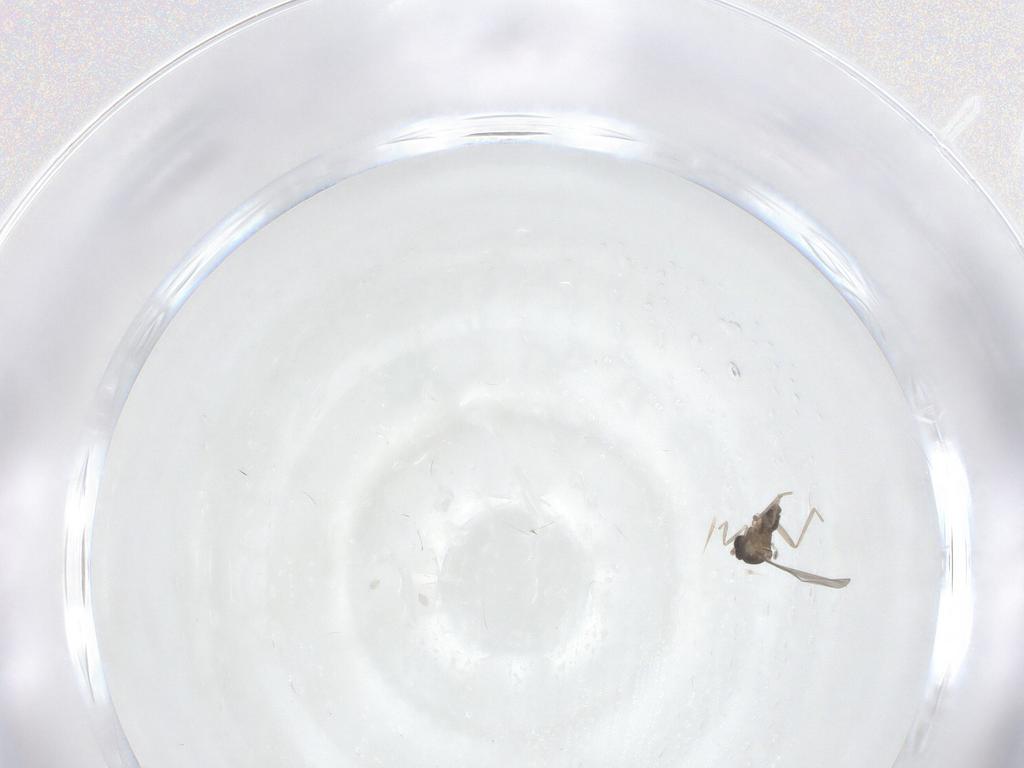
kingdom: Animalia
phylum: Arthropoda
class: Insecta
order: Diptera
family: Cecidomyiidae
